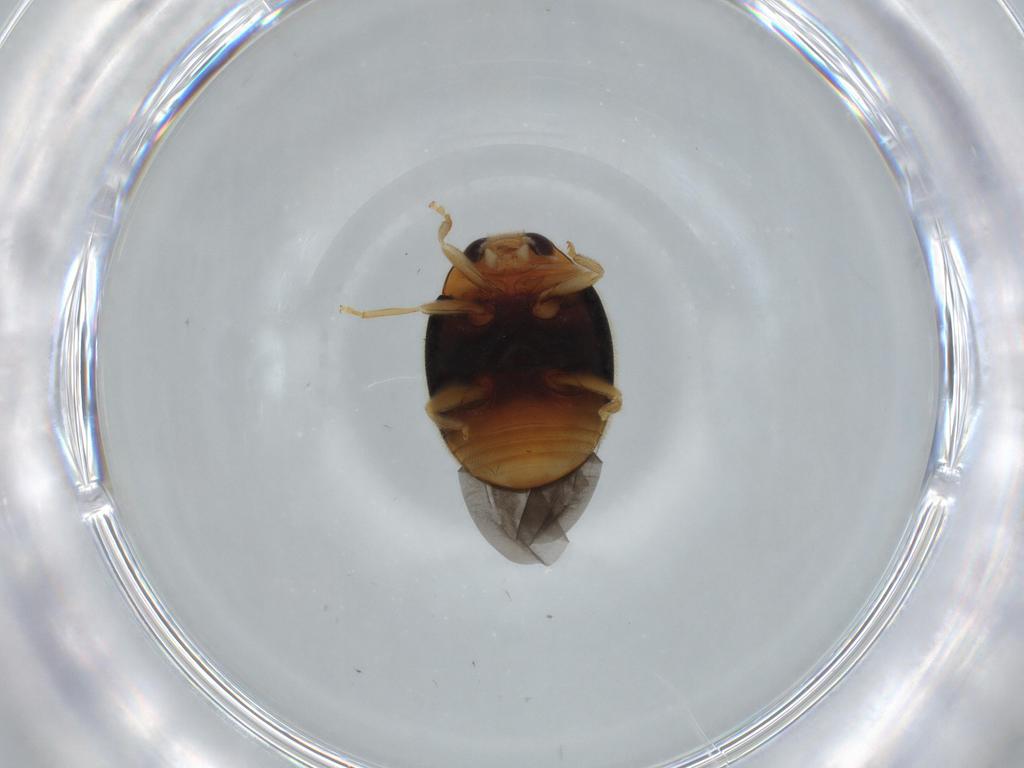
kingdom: Animalia
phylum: Arthropoda
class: Insecta
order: Coleoptera
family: Coccinellidae
